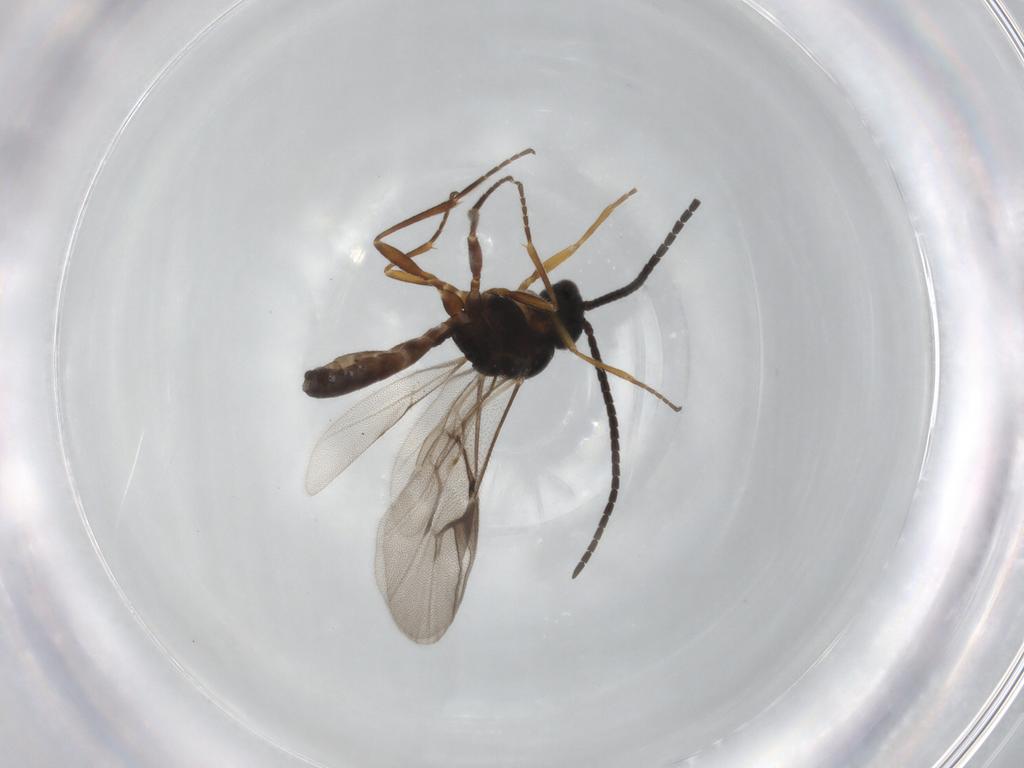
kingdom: Animalia
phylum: Arthropoda
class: Insecta
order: Hymenoptera
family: Braconidae
